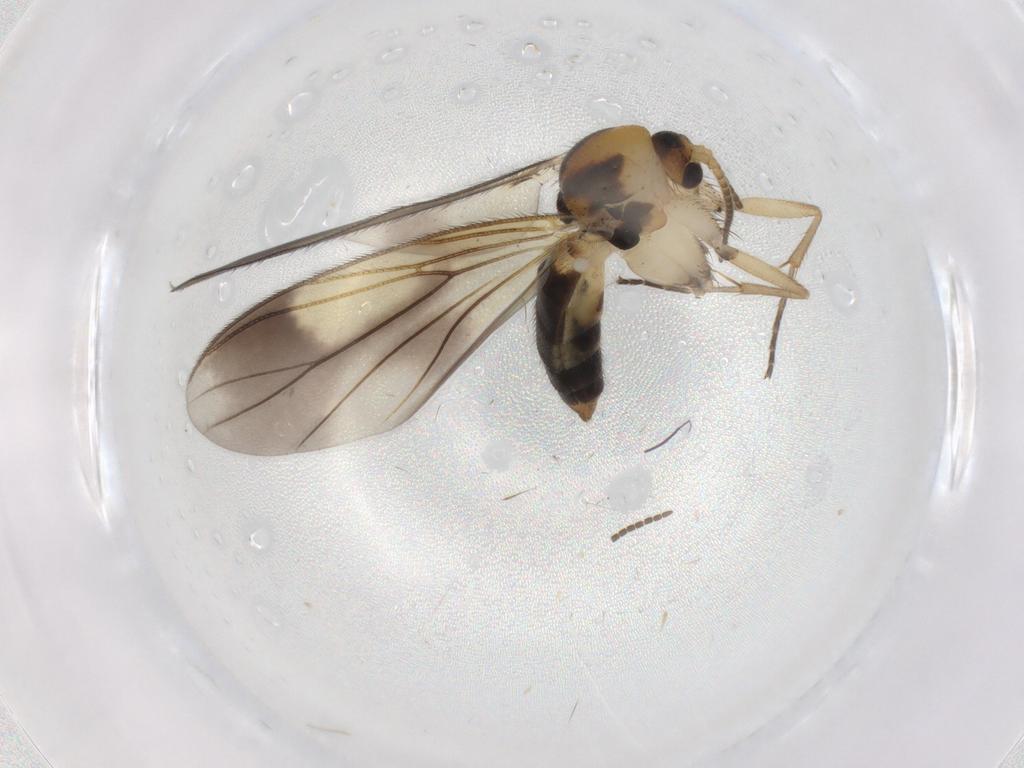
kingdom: Animalia
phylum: Arthropoda
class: Insecta
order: Diptera
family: Mycetophilidae
